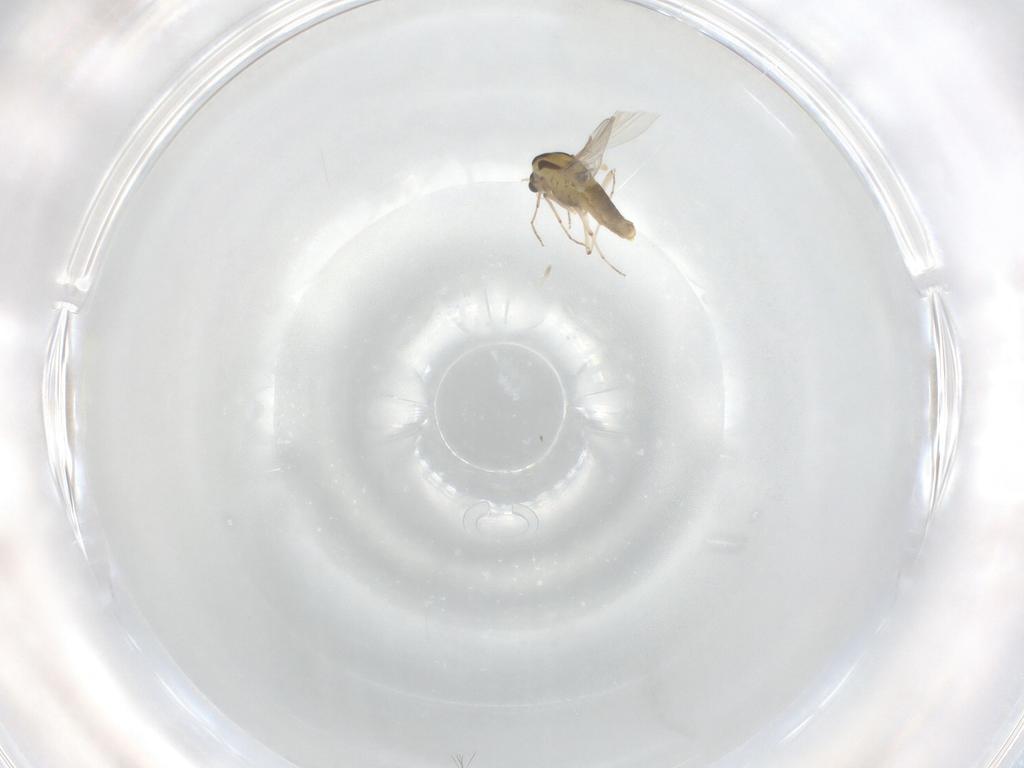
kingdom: Animalia
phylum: Arthropoda
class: Insecta
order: Diptera
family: Chironomidae
